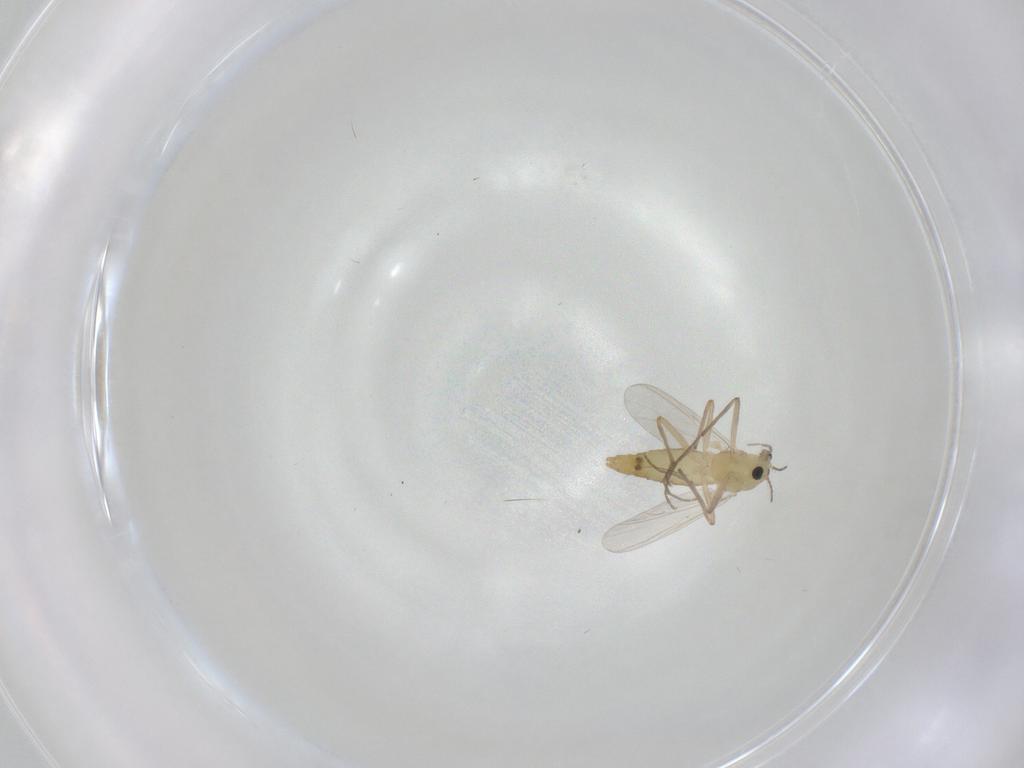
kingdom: Animalia
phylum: Arthropoda
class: Insecta
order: Diptera
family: Chironomidae
